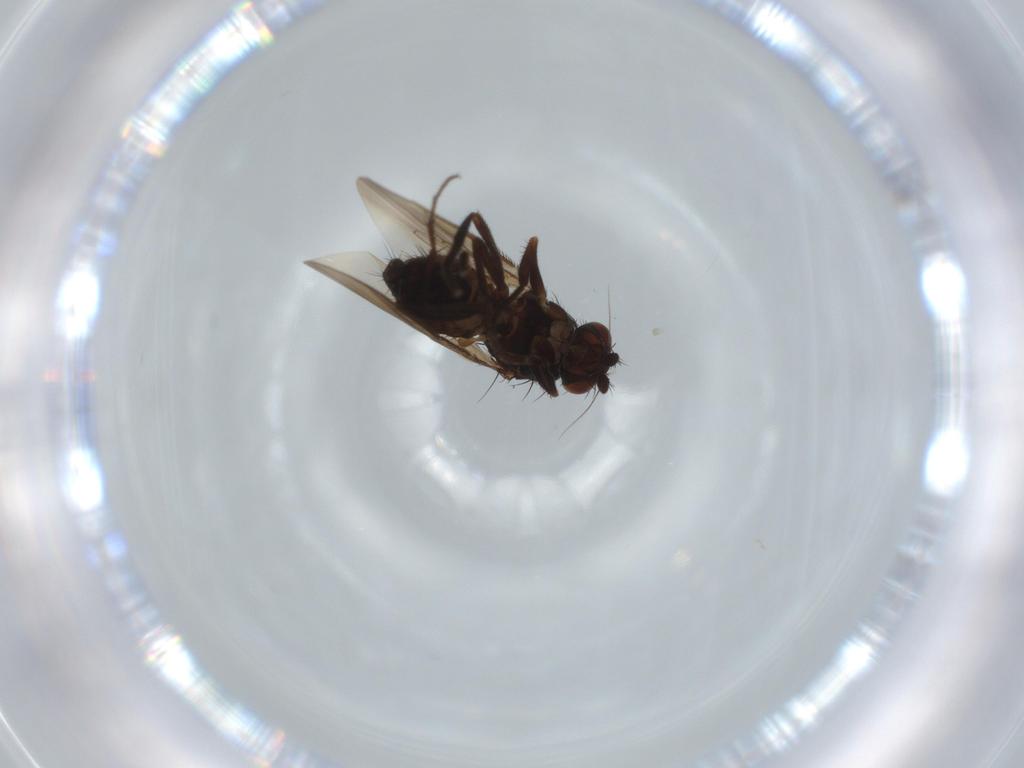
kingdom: Animalia
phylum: Arthropoda
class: Insecta
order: Diptera
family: Sphaeroceridae
